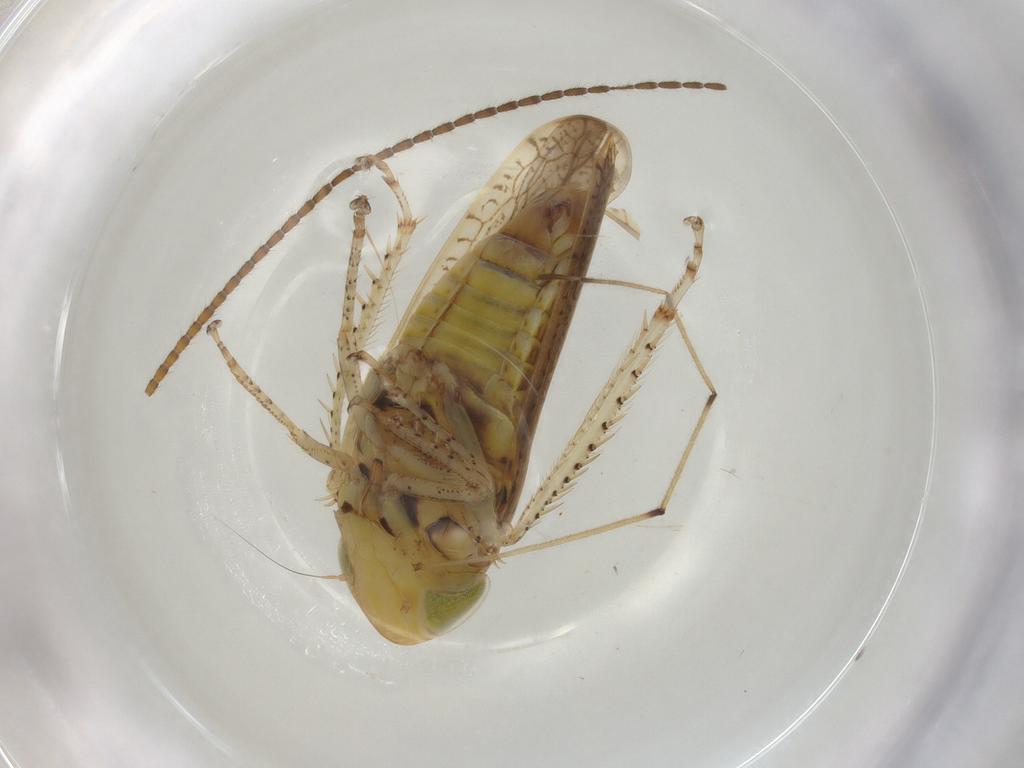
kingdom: Animalia
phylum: Arthropoda
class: Insecta
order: Hemiptera
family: Cicadellidae
